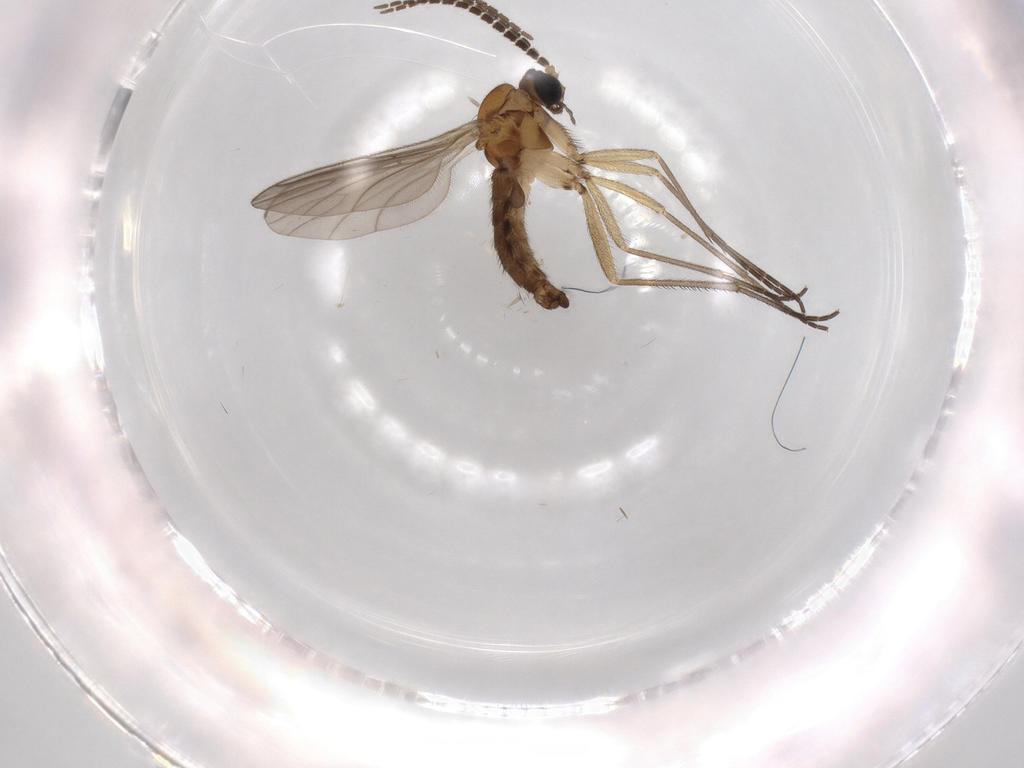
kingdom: Animalia
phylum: Arthropoda
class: Insecta
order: Diptera
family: Sciaridae
